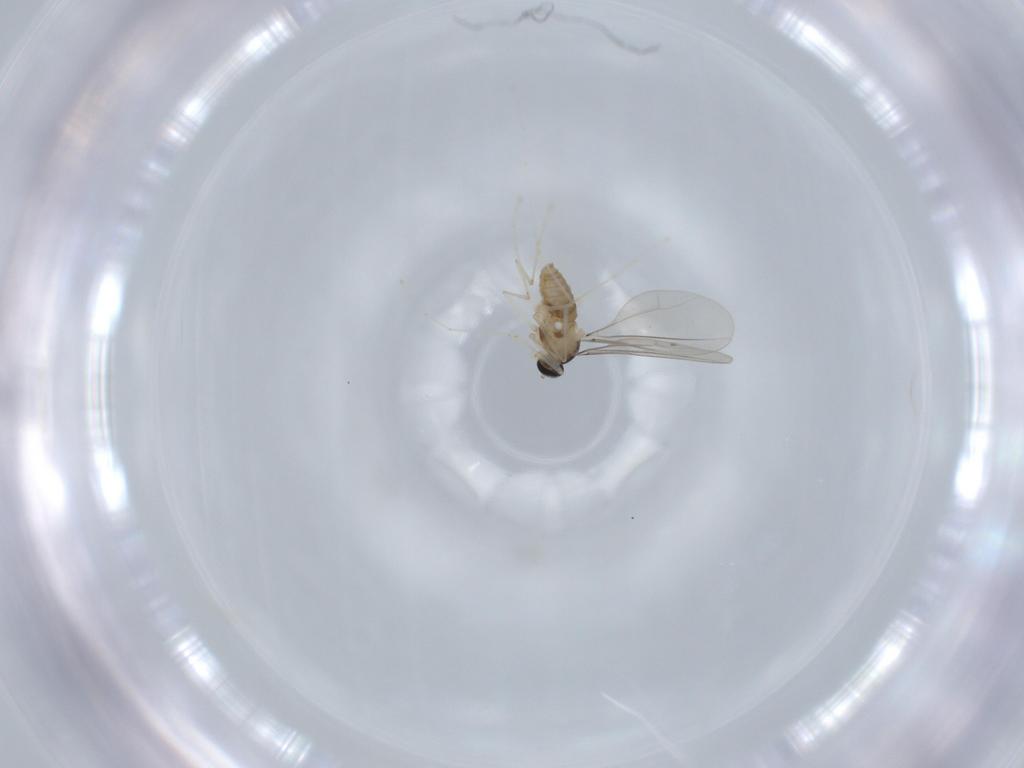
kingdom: Animalia
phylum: Arthropoda
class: Insecta
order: Diptera
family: Cecidomyiidae
